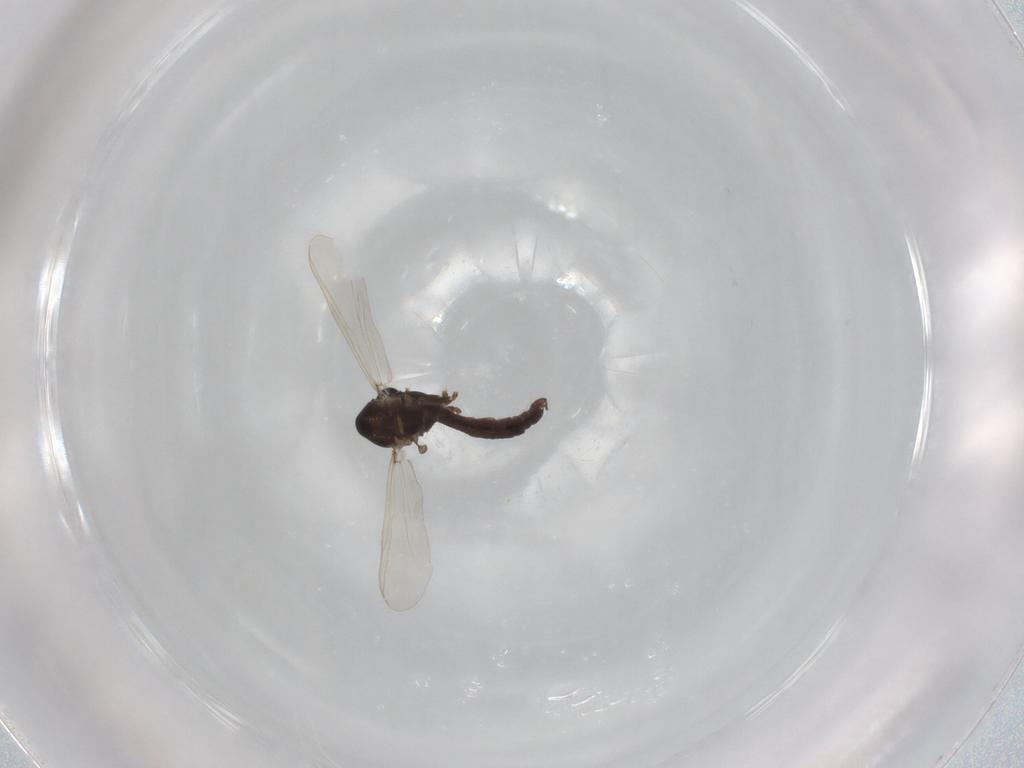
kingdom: Animalia
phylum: Arthropoda
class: Insecta
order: Diptera
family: Chironomidae
